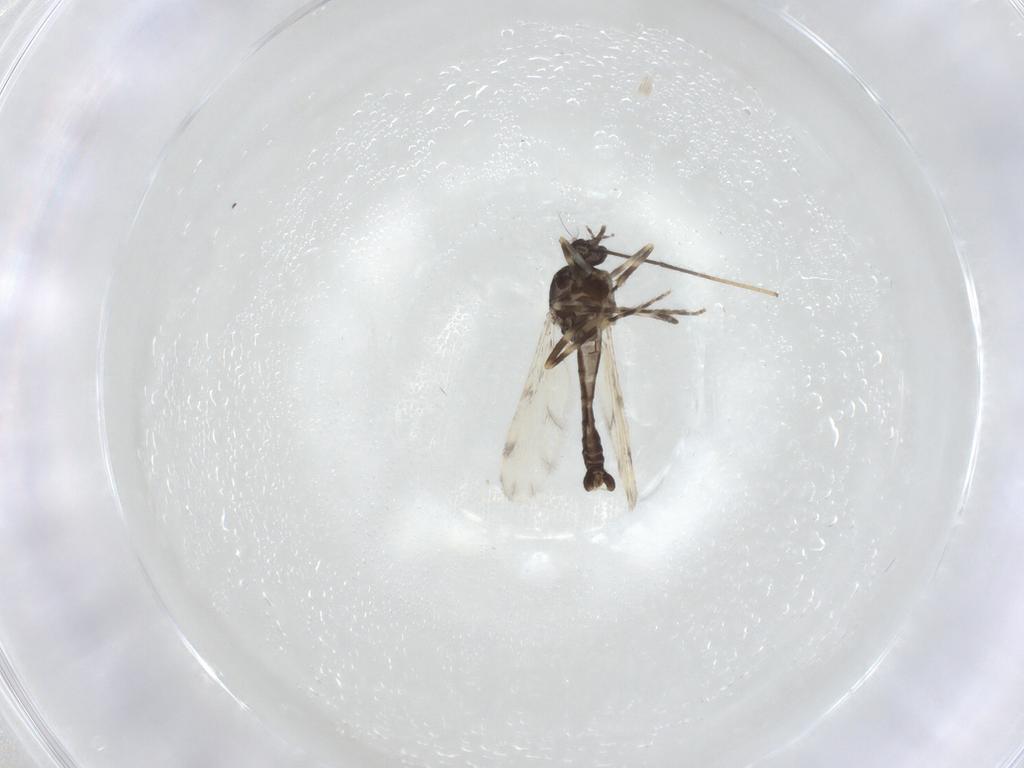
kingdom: Animalia
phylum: Arthropoda
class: Insecta
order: Diptera
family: Ceratopogonidae
